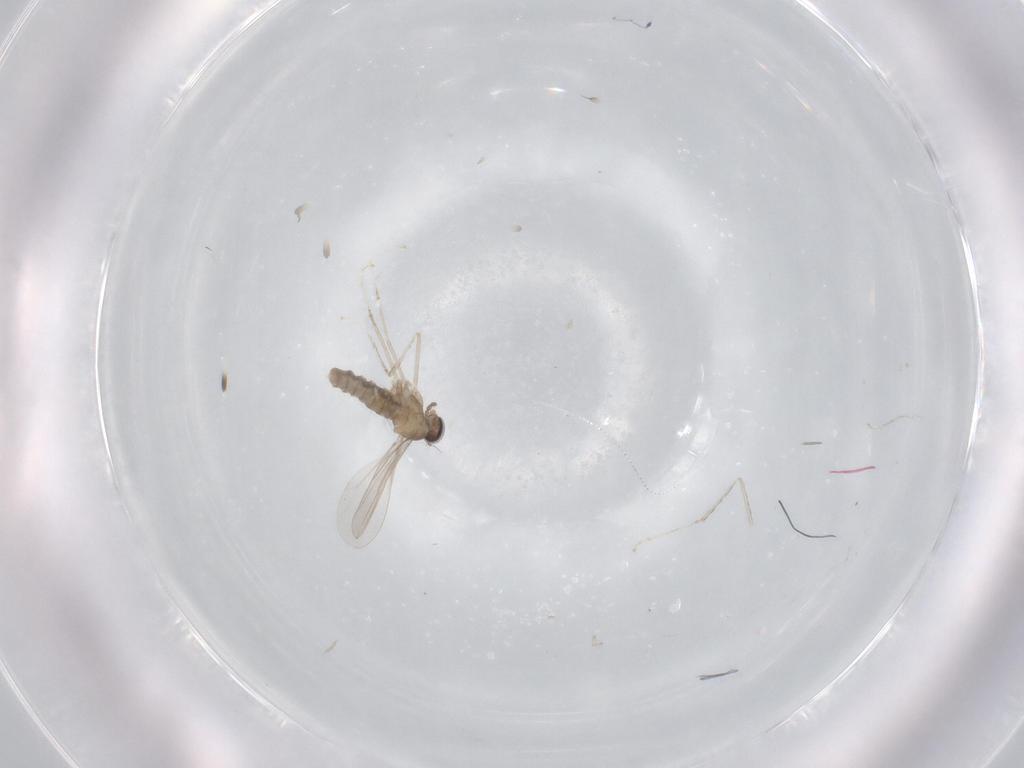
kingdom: Animalia
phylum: Arthropoda
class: Insecta
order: Diptera
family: Cecidomyiidae
